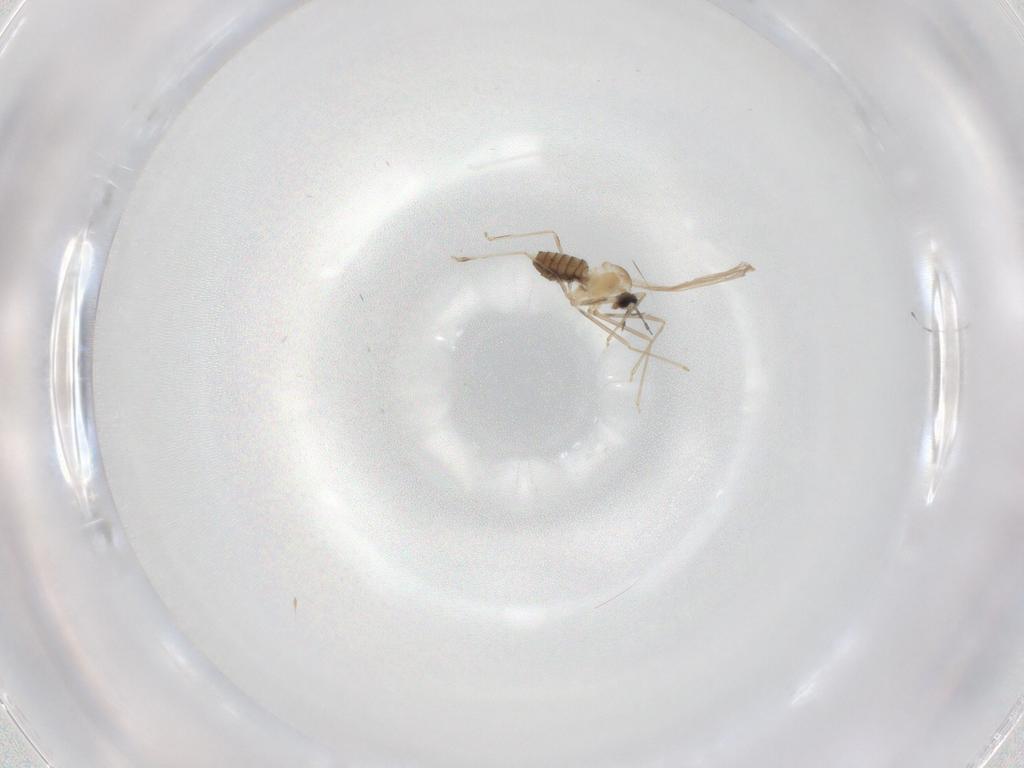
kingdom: Animalia
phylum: Arthropoda
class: Insecta
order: Diptera
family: Cecidomyiidae
